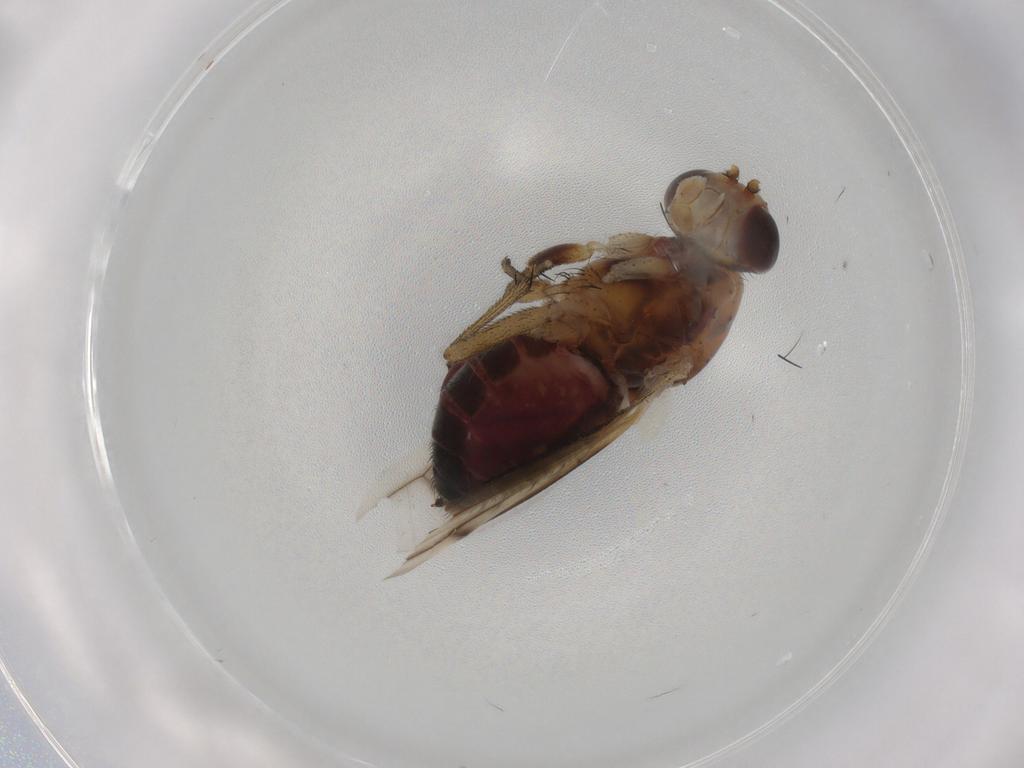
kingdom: Animalia
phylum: Arthropoda
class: Insecta
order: Diptera
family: Heleomyzidae
